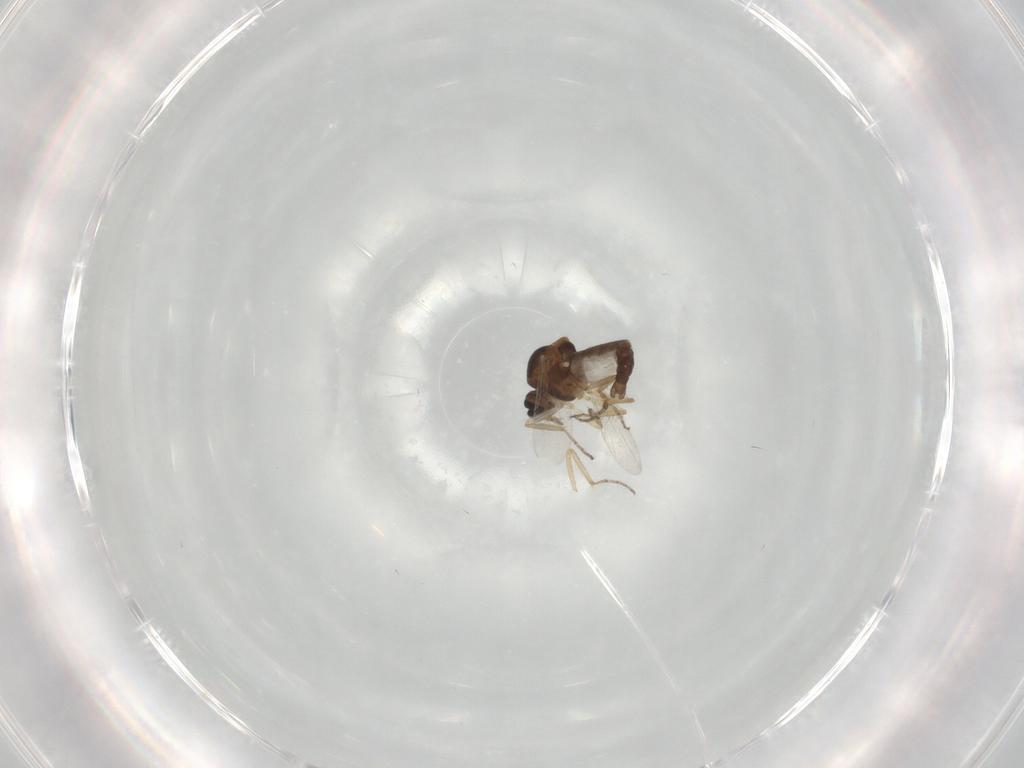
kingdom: Animalia
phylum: Arthropoda
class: Insecta
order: Diptera
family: Ceratopogonidae
